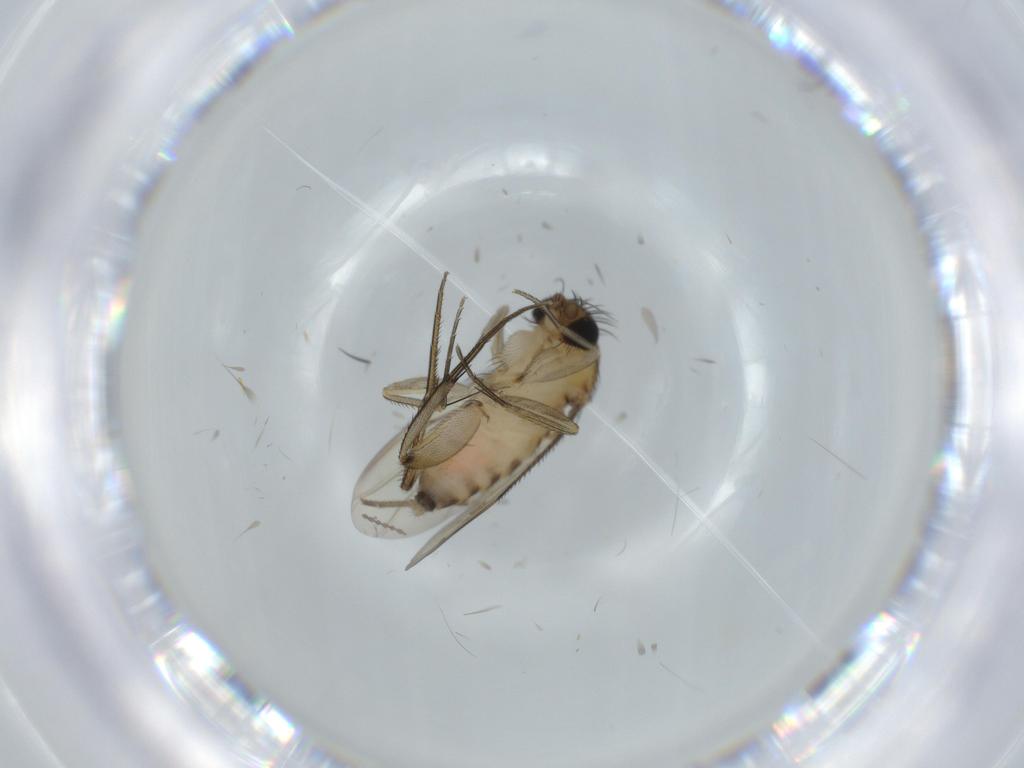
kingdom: Animalia
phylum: Arthropoda
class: Insecta
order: Diptera
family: Phoridae
